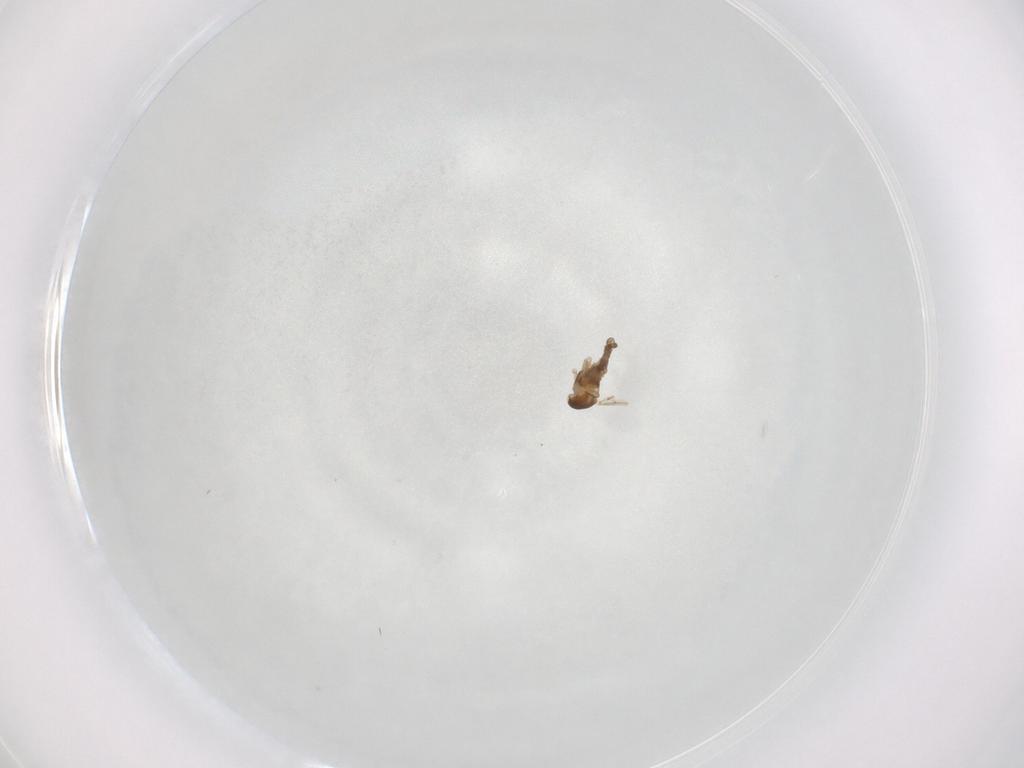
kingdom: Animalia
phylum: Arthropoda
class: Insecta
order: Diptera
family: Cecidomyiidae
